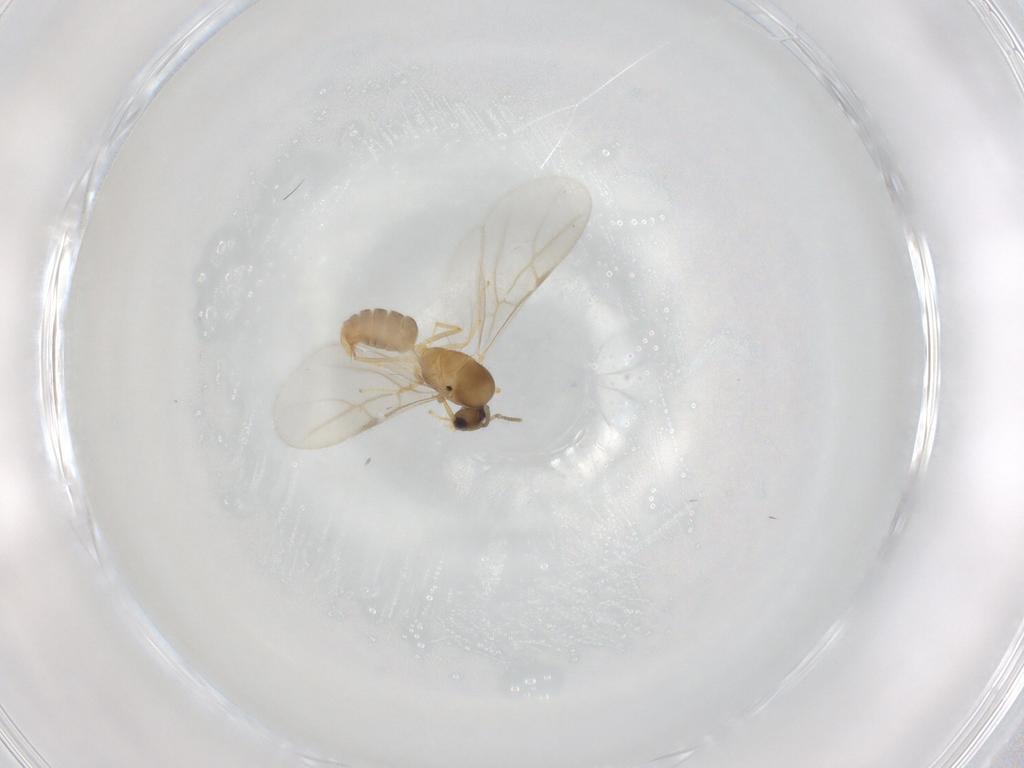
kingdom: Animalia
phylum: Arthropoda
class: Insecta
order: Hymenoptera
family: Formicidae
